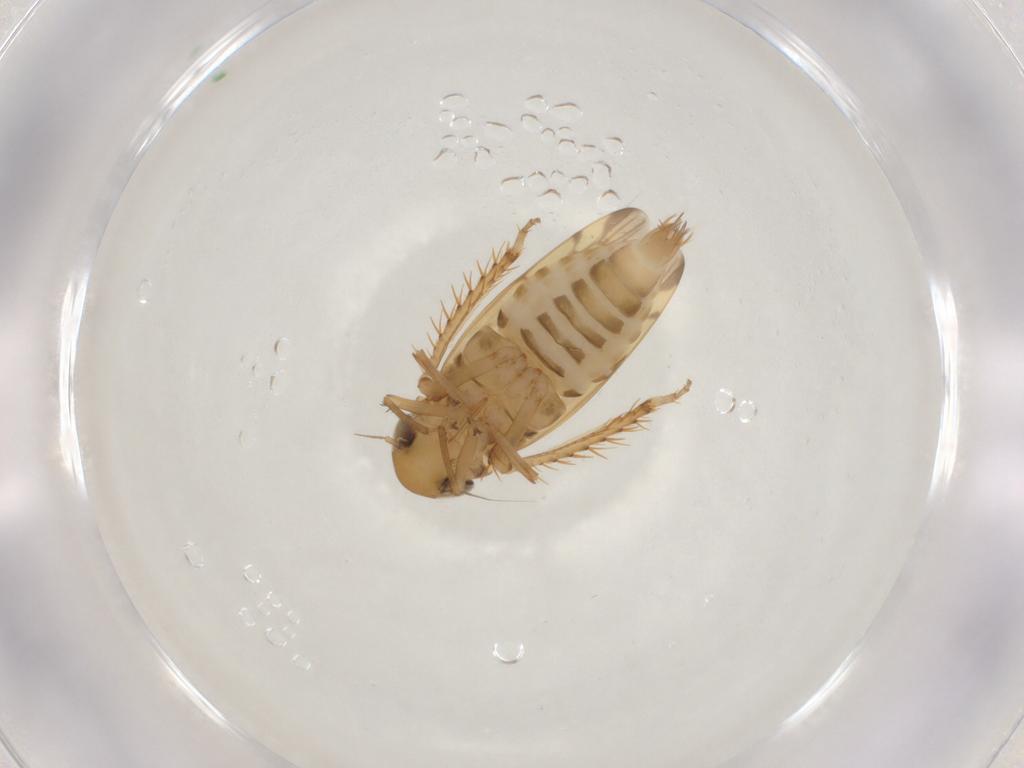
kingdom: Animalia
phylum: Arthropoda
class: Insecta
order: Hemiptera
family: Cicadellidae
